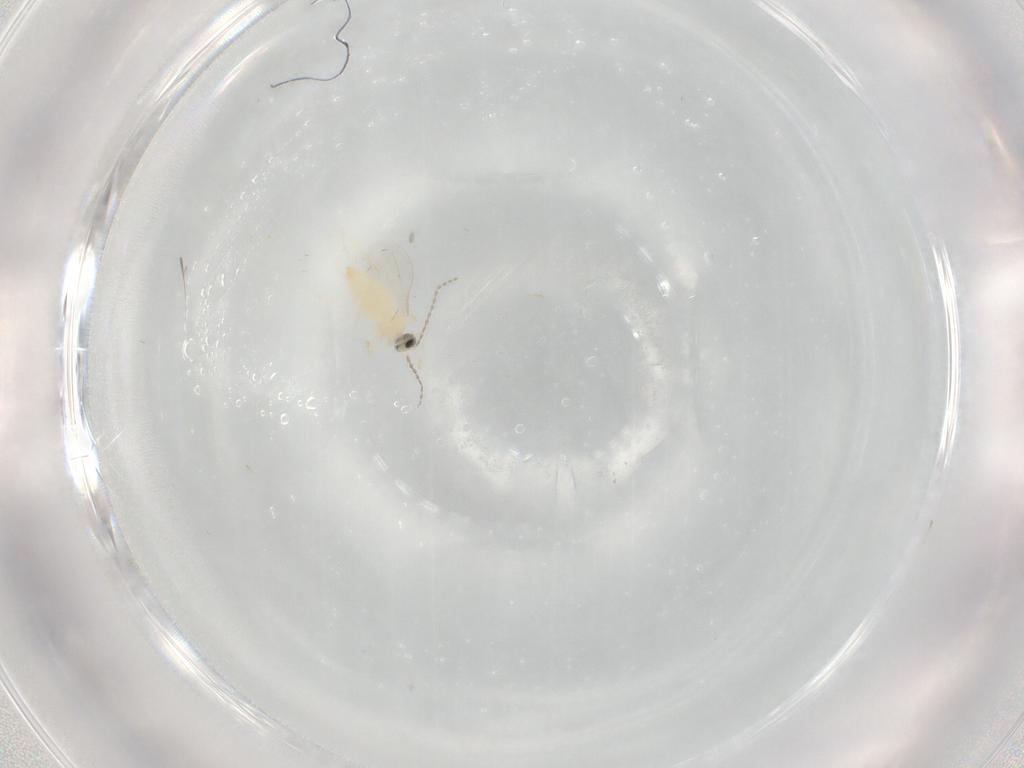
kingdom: Animalia
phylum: Arthropoda
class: Insecta
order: Diptera
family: Cecidomyiidae
